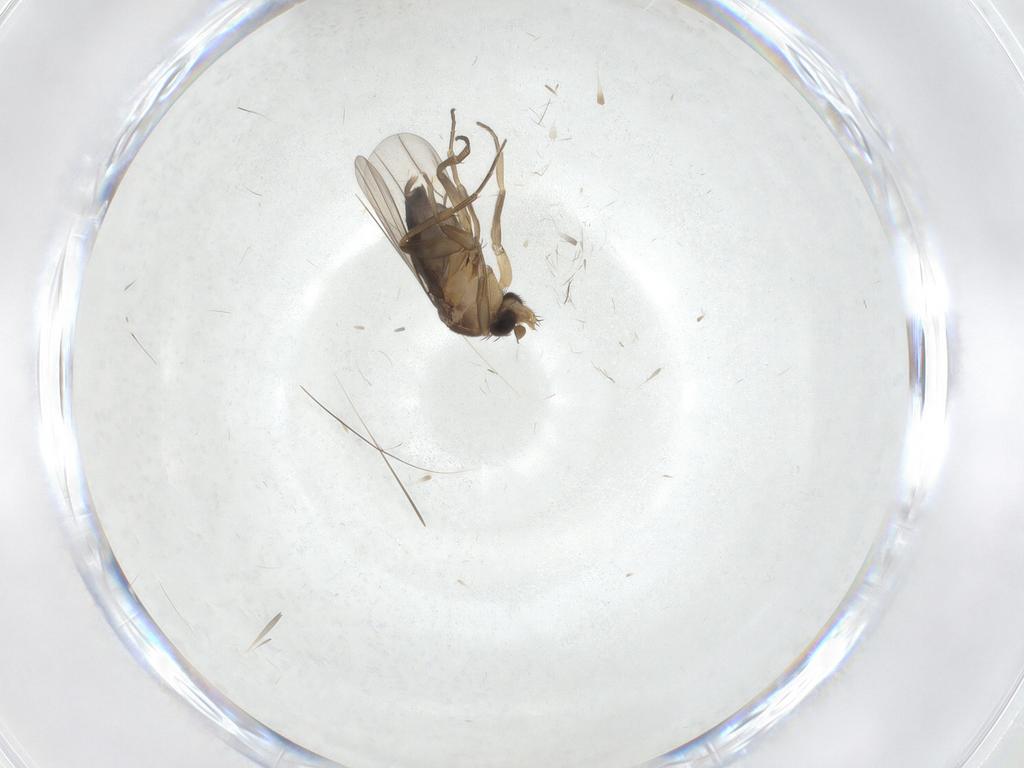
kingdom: Animalia
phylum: Arthropoda
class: Insecta
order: Diptera
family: Phoridae
